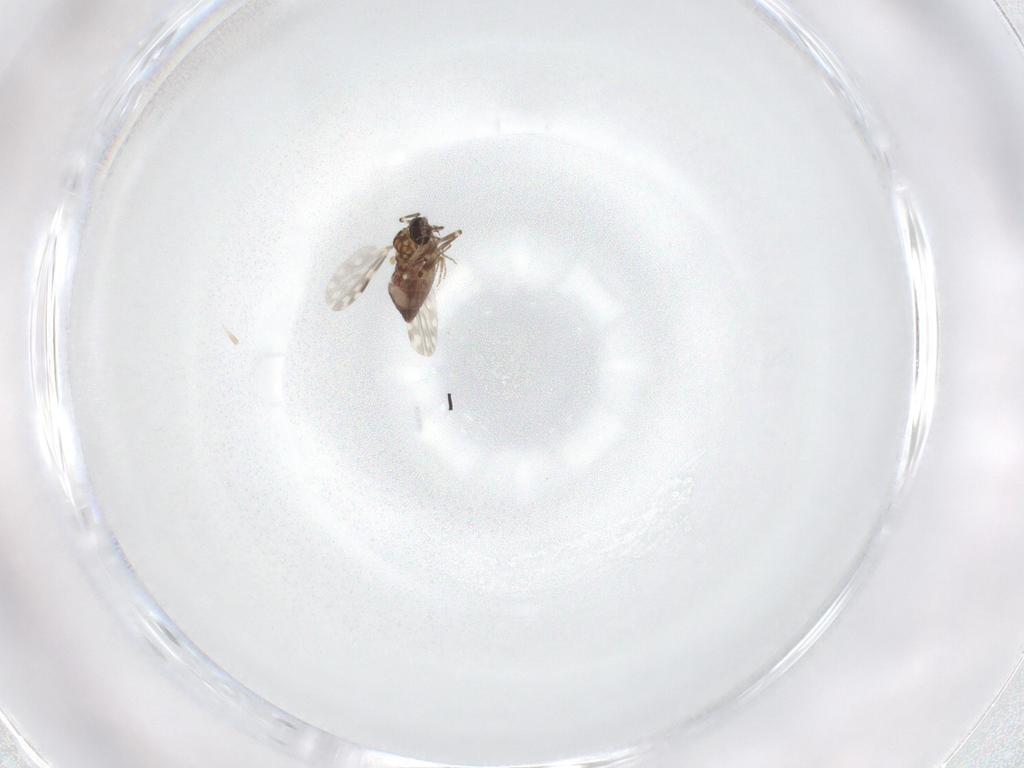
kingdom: Animalia
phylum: Arthropoda
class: Insecta
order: Diptera
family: Ceratopogonidae
